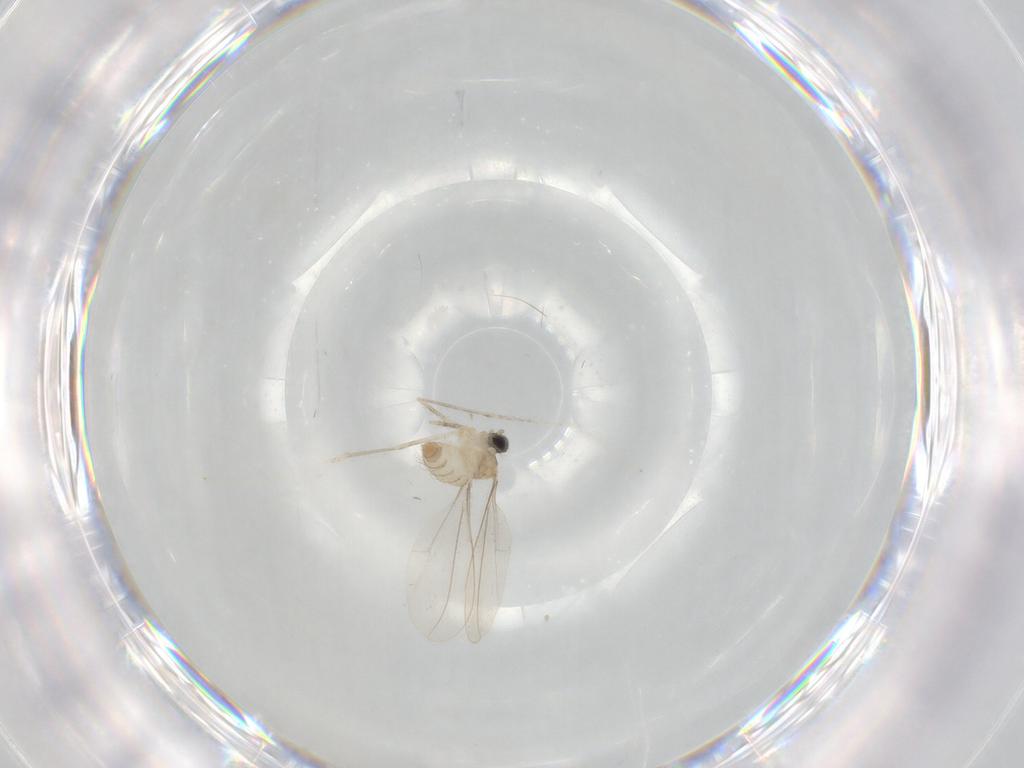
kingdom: Animalia
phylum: Arthropoda
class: Insecta
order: Diptera
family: Cecidomyiidae
